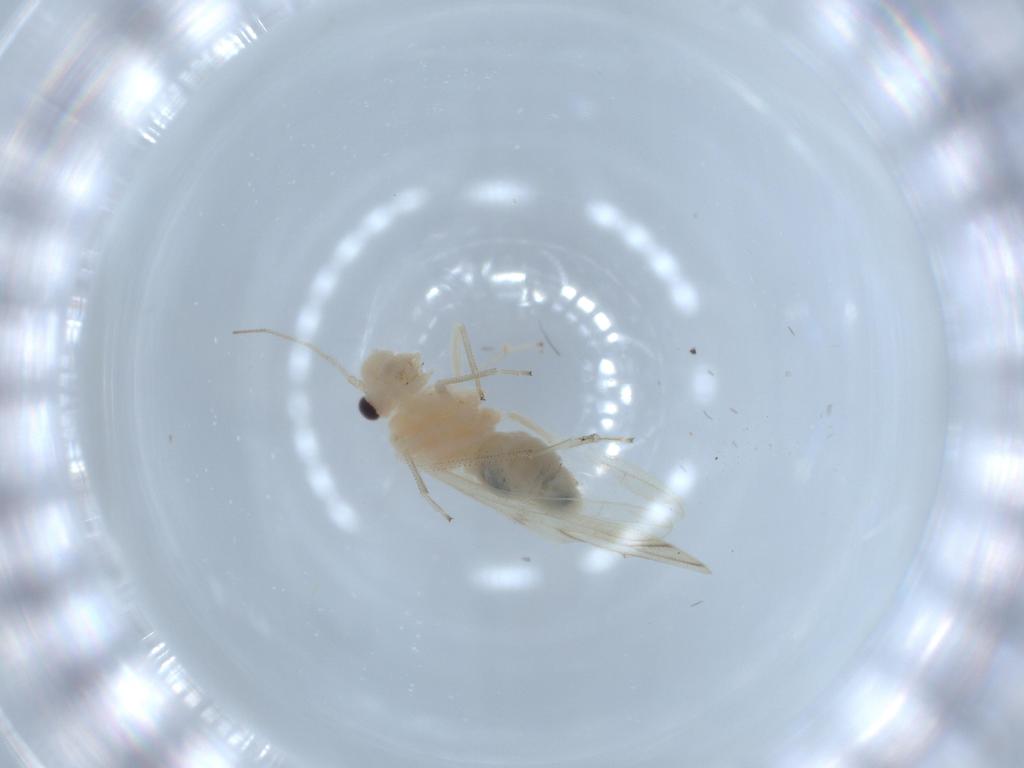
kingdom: Animalia
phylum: Arthropoda
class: Insecta
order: Psocodea
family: Caeciliusidae
